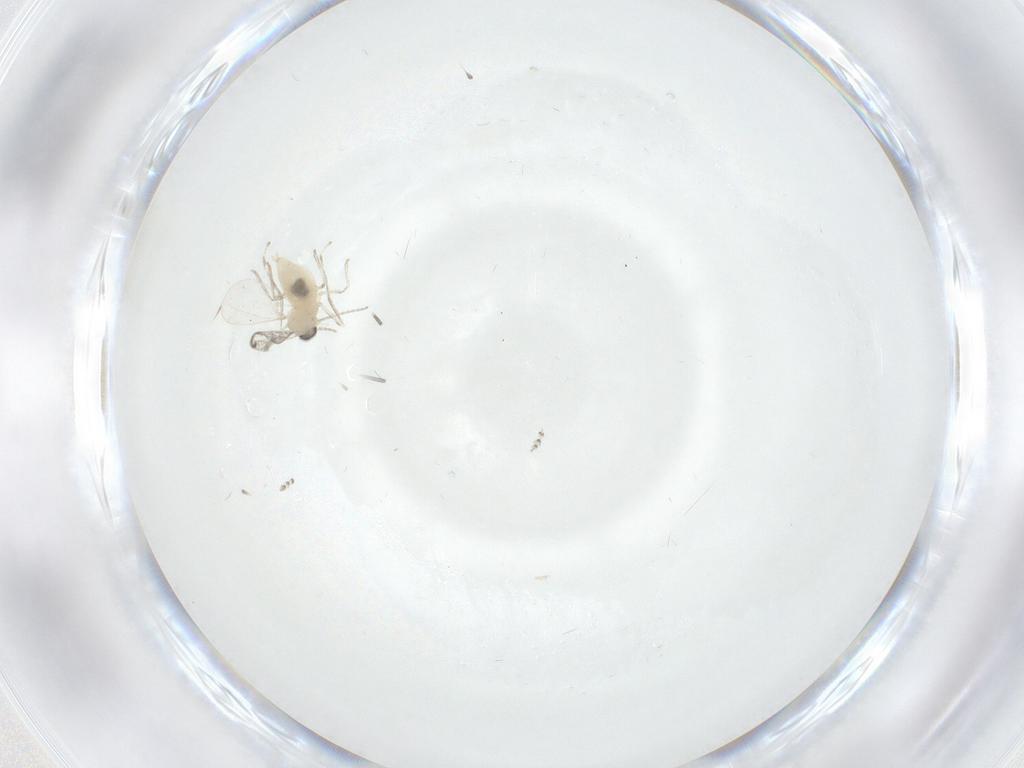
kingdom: Animalia
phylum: Arthropoda
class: Insecta
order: Diptera
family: Cecidomyiidae
